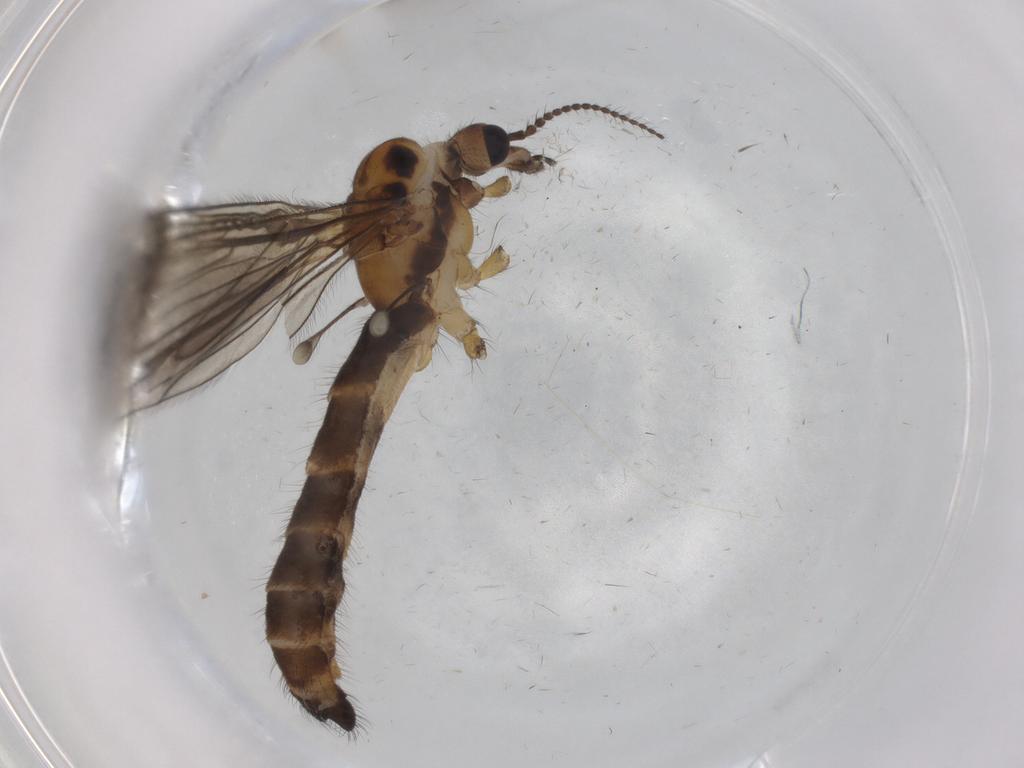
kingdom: Animalia
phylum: Arthropoda
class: Insecta
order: Diptera
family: Limoniidae
